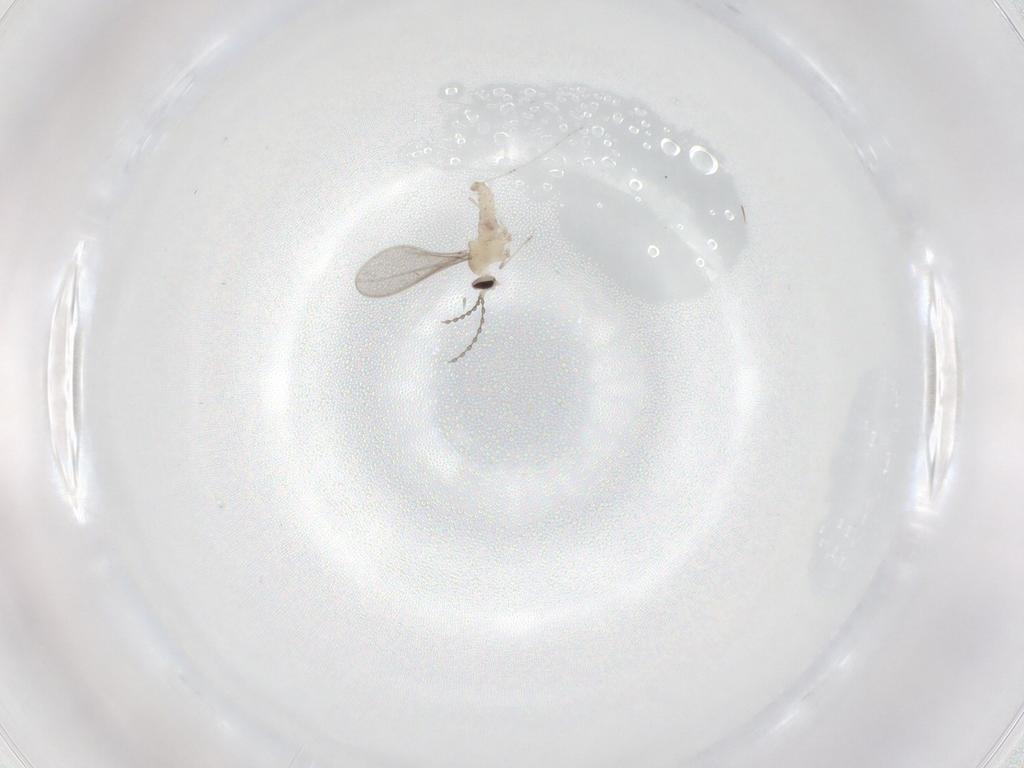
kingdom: Animalia
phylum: Arthropoda
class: Insecta
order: Diptera
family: Cecidomyiidae
